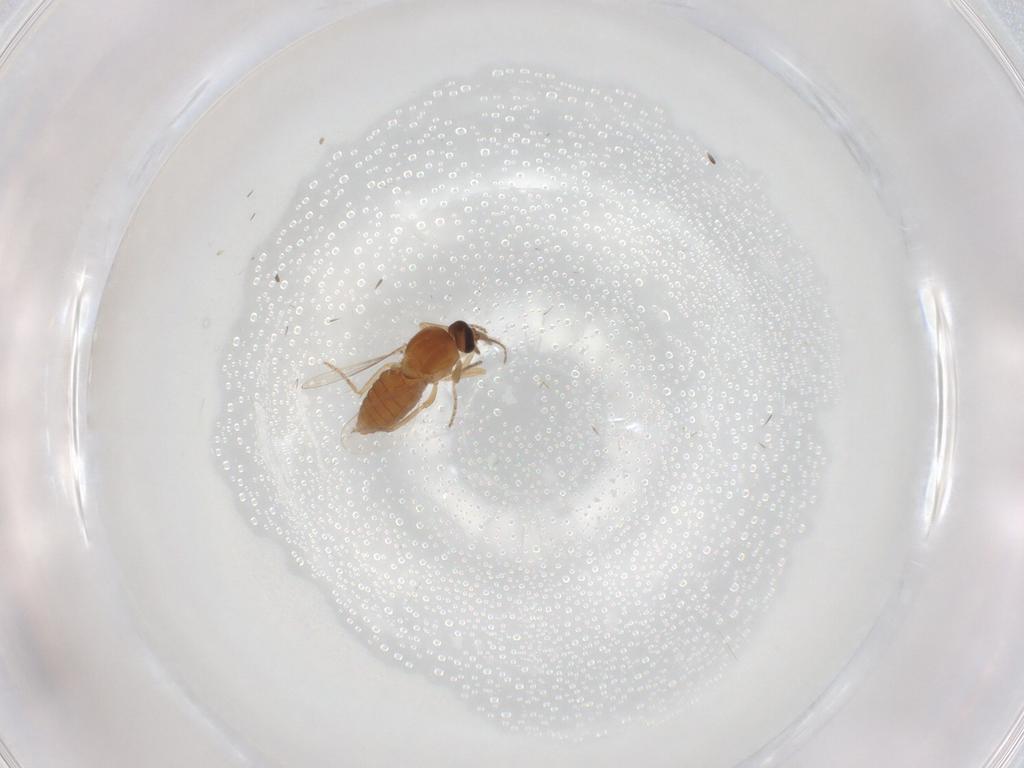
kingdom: Animalia
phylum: Arthropoda
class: Insecta
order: Diptera
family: Ceratopogonidae
